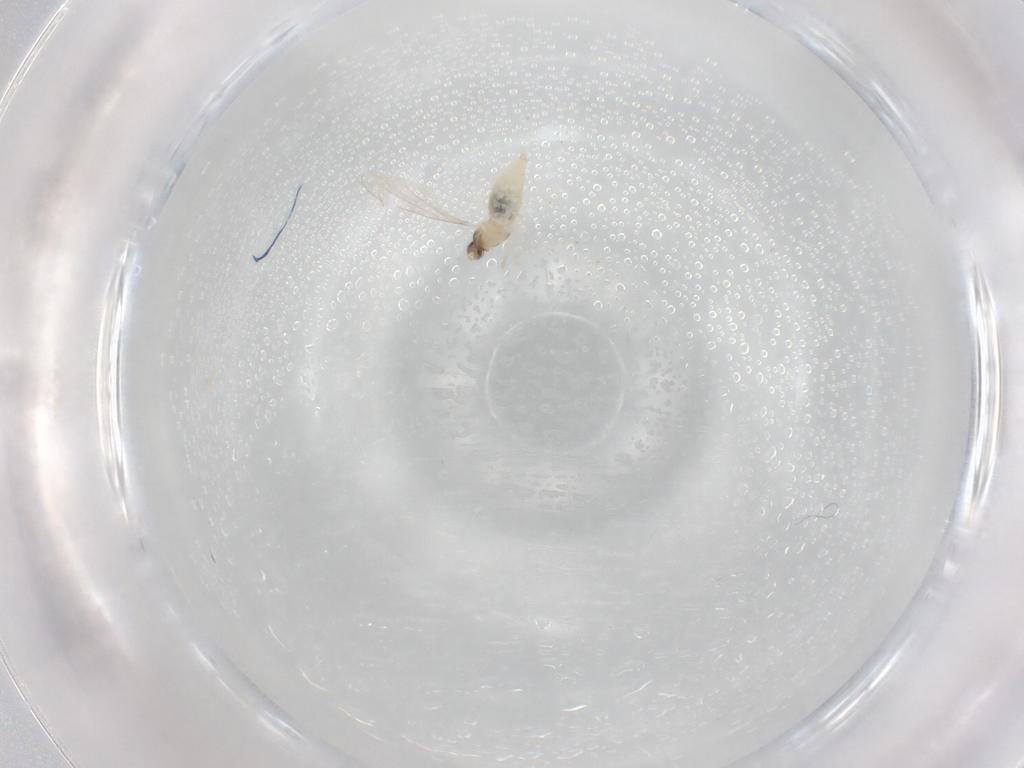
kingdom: Animalia
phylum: Arthropoda
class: Insecta
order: Diptera
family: Cecidomyiidae
